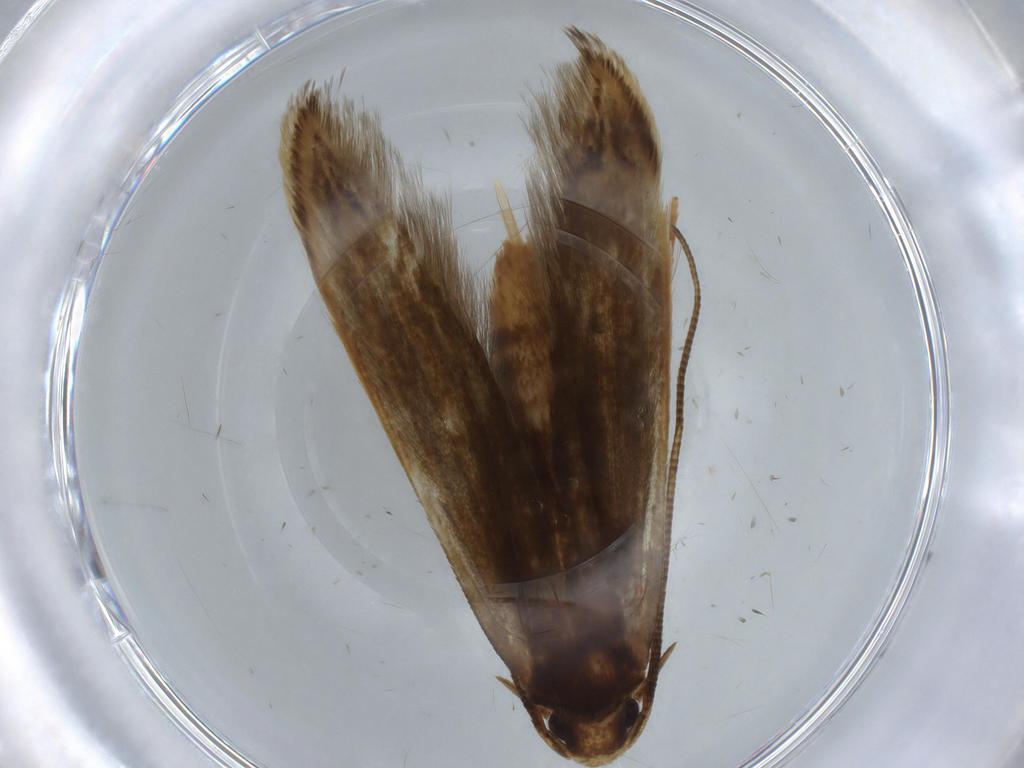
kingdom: Animalia
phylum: Arthropoda
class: Insecta
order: Lepidoptera
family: Tineidae
